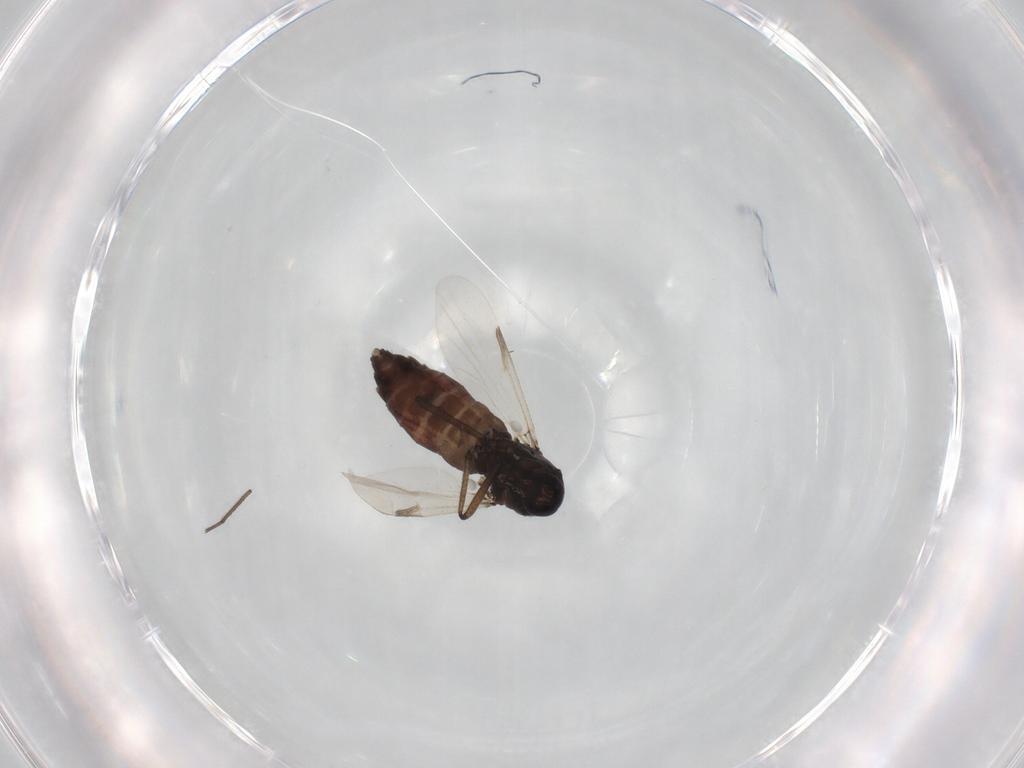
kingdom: Animalia
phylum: Arthropoda
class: Insecta
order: Diptera
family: Ceratopogonidae
